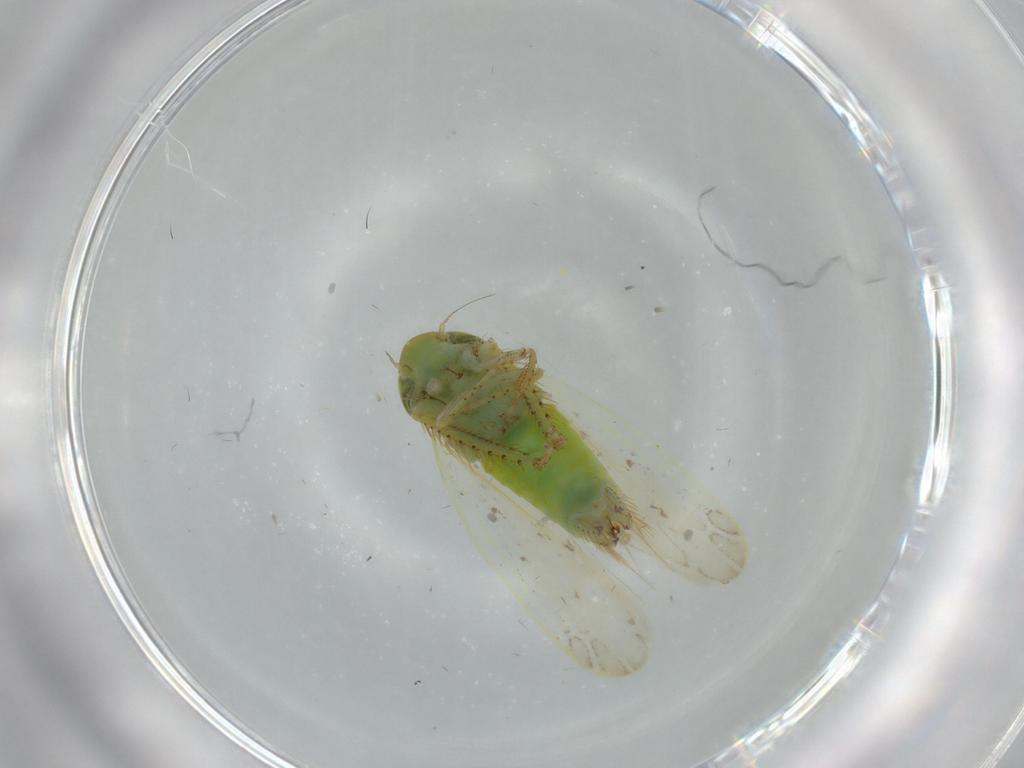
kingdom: Animalia
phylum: Arthropoda
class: Insecta
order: Hemiptera
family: Cicadellidae
